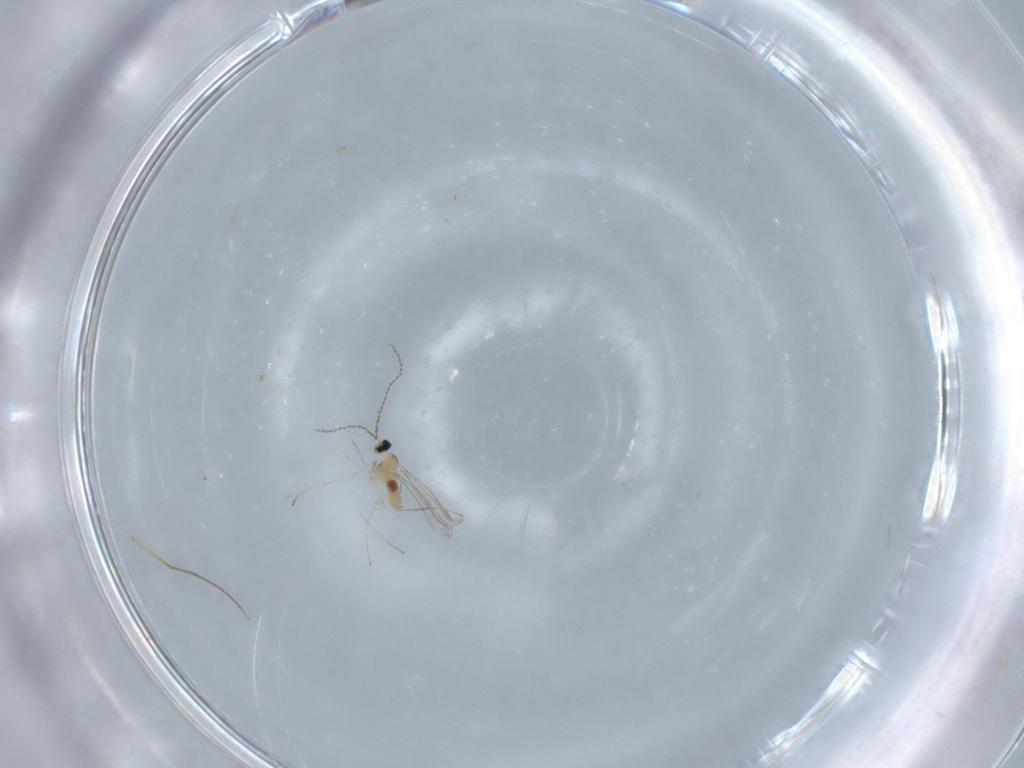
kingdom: Animalia
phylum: Arthropoda
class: Insecta
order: Diptera
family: Cecidomyiidae
